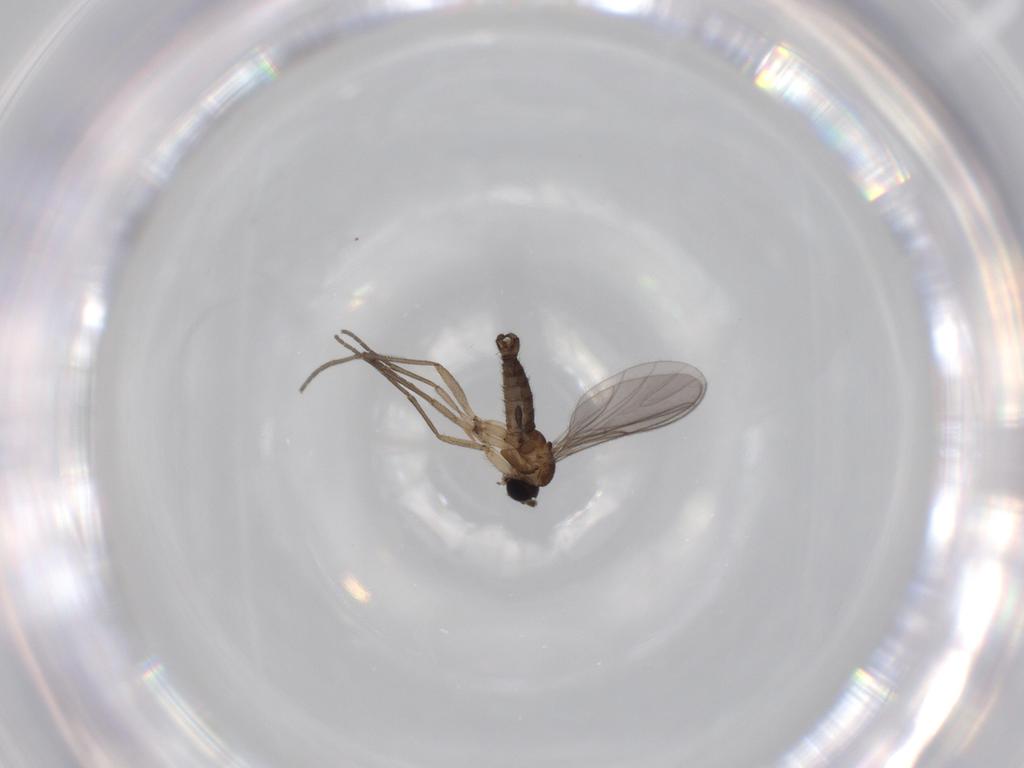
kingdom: Animalia
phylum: Arthropoda
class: Insecta
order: Diptera
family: Sciaridae
